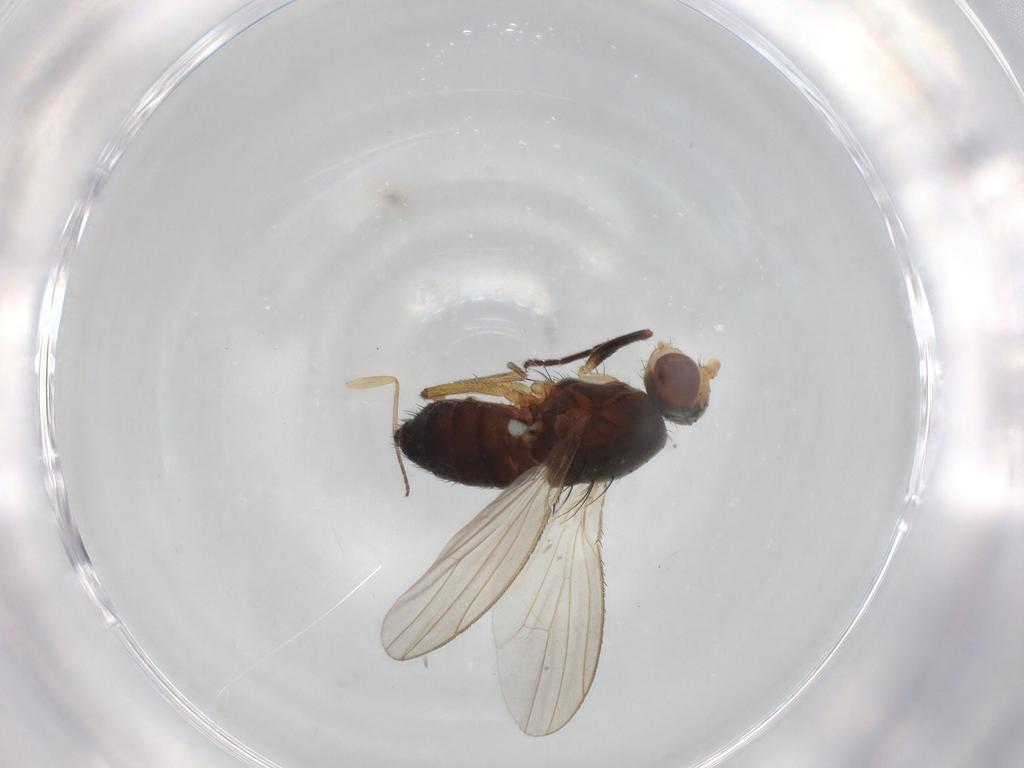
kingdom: Animalia
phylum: Arthropoda
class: Insecta
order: Diptera
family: Heleomyzidae
